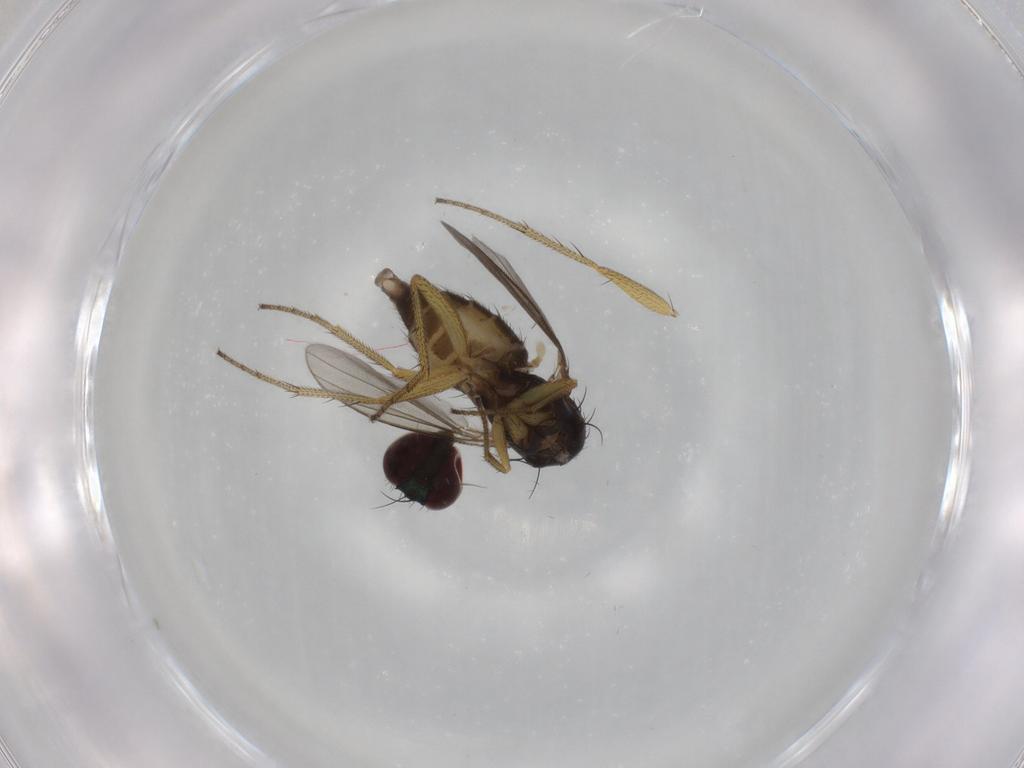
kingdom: Animalia
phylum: Arthropoda
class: Insecta
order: Diptera
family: Dolichopodidae
